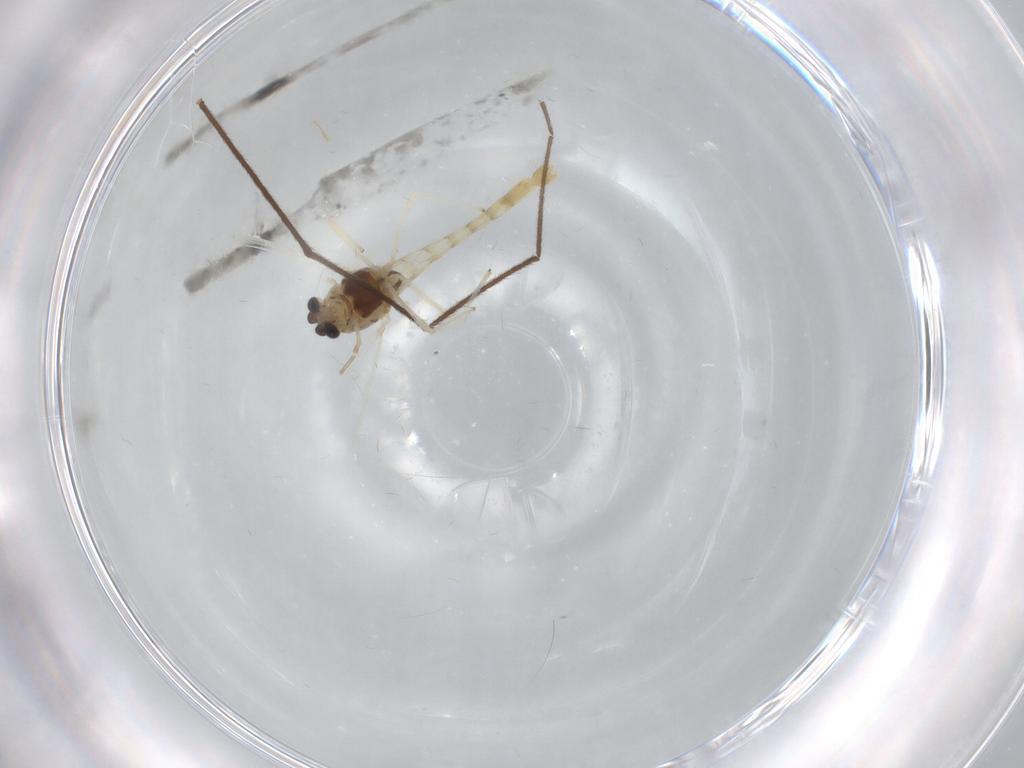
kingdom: Animalia
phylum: Arthropoda
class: Insecta
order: Diptera
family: Chironomidae
